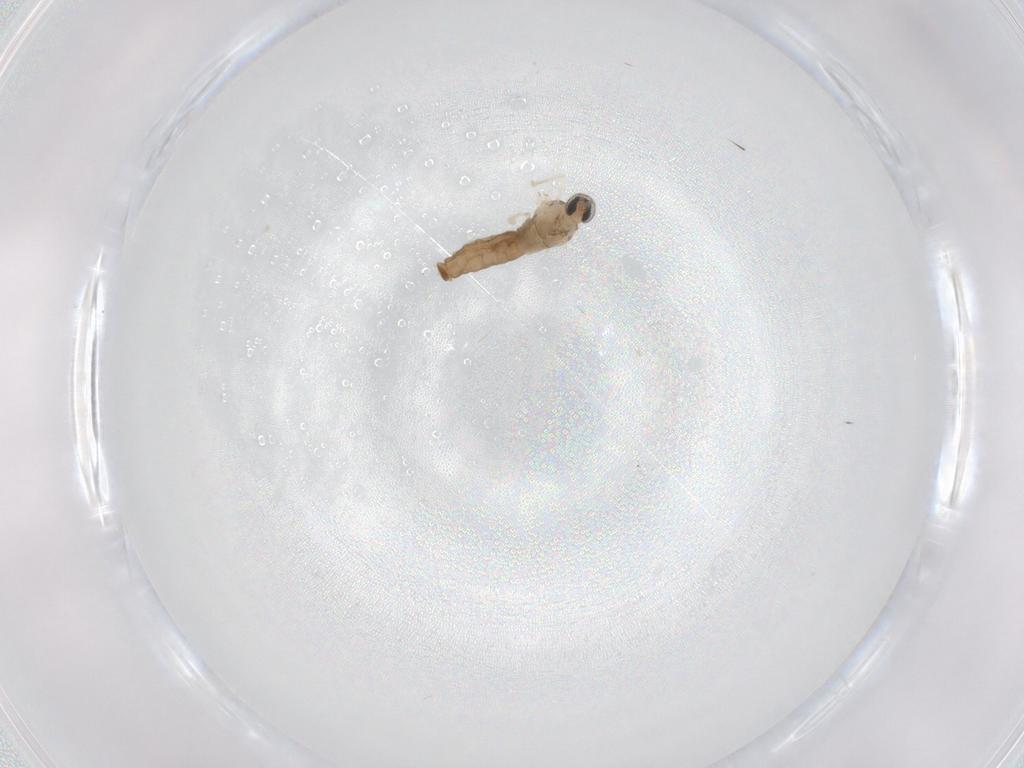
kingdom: Animalia
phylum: Arthropoda
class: Insecta
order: Diptera
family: Cecidomyiidae
